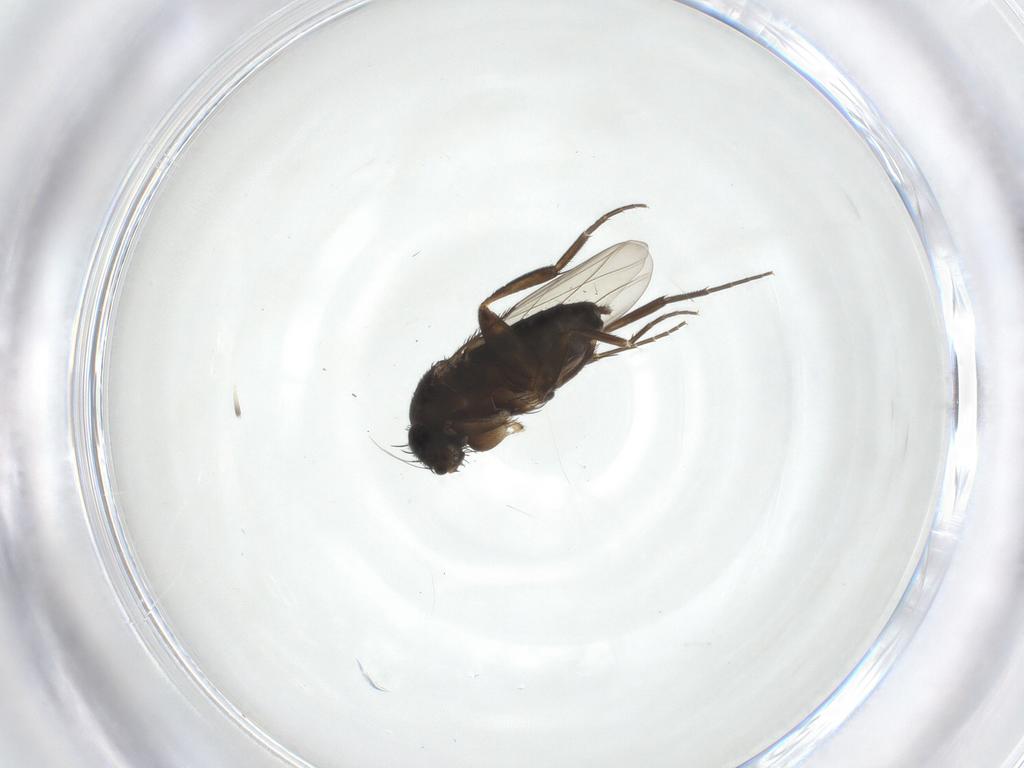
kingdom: Animalia
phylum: Arthropoda
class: Insecta
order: Diptera
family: Phoridae
